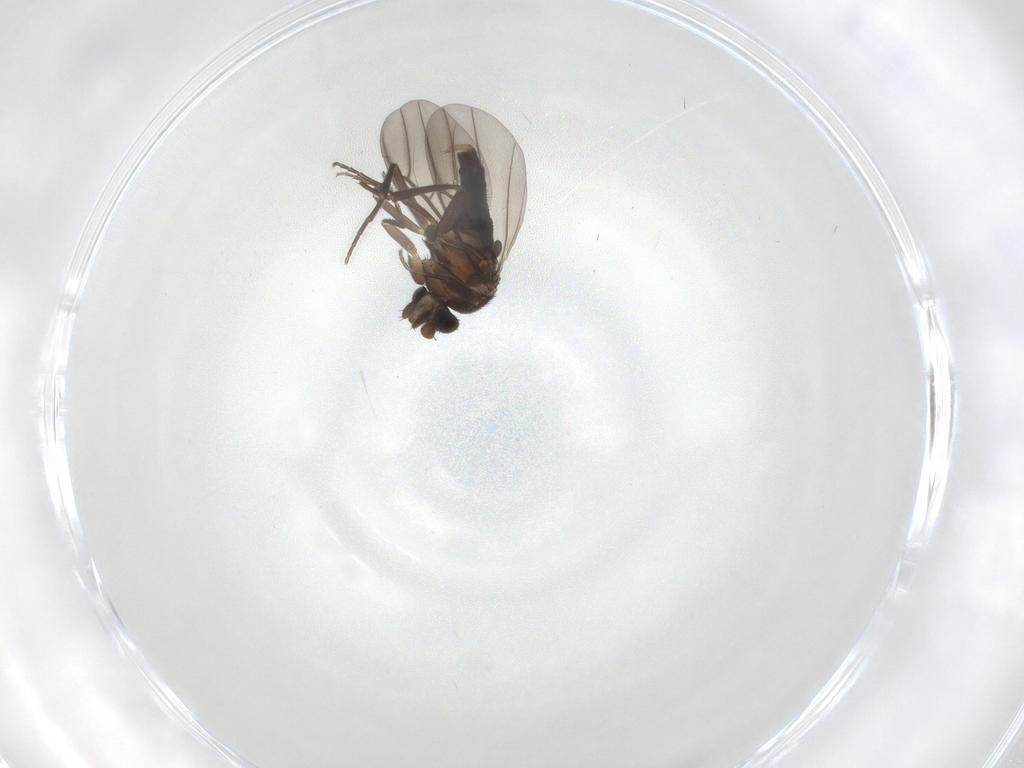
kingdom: Animalia
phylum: Arthropoda
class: Insecta
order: Diptera
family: Phoridae
